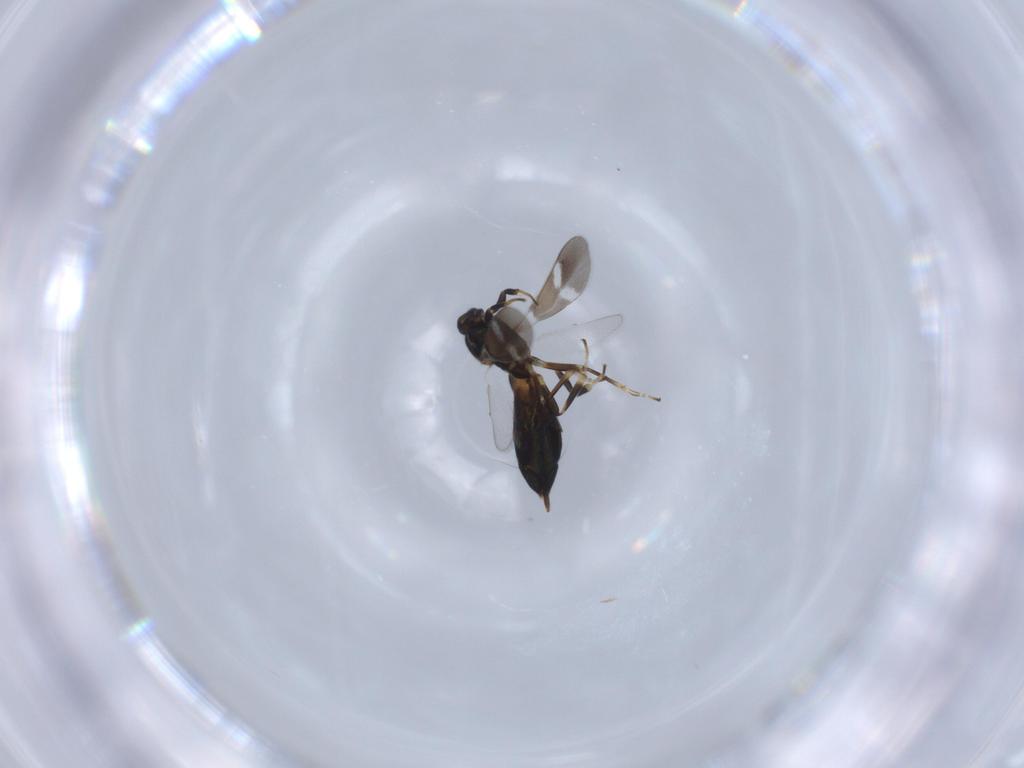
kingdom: Animalia
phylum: Arthropoda
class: Insecta
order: Hymenoptera
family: Eupelmidae
